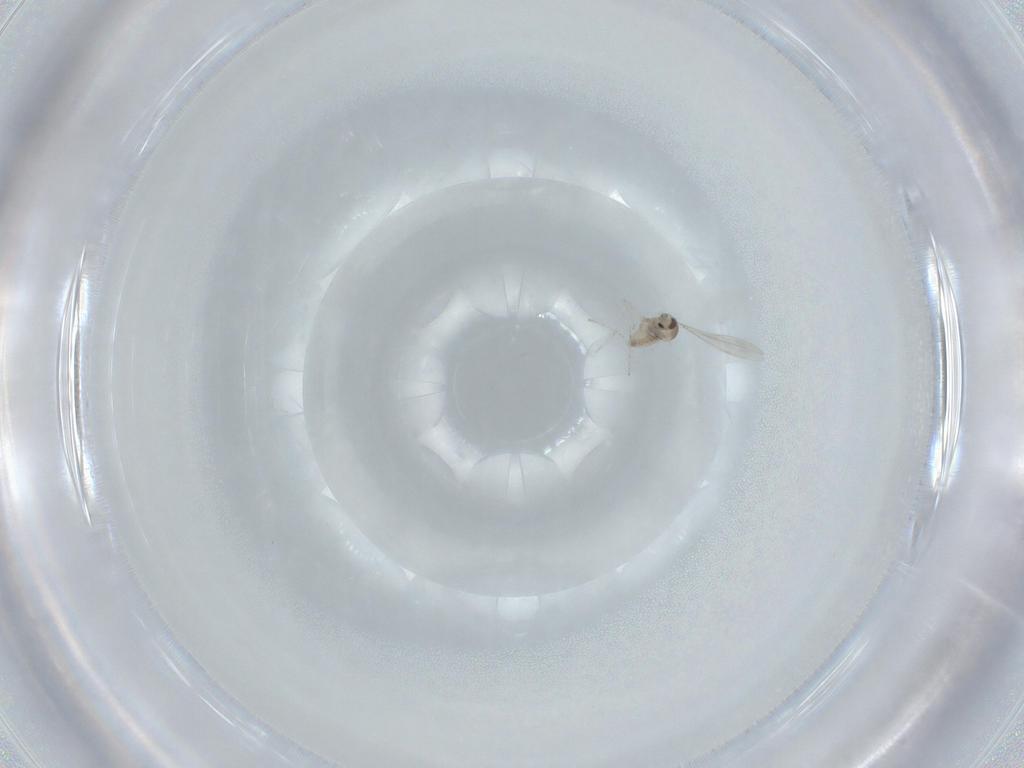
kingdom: Animalia
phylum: Arthropoda
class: Insecta
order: Diptera
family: Cecidomyiidae
